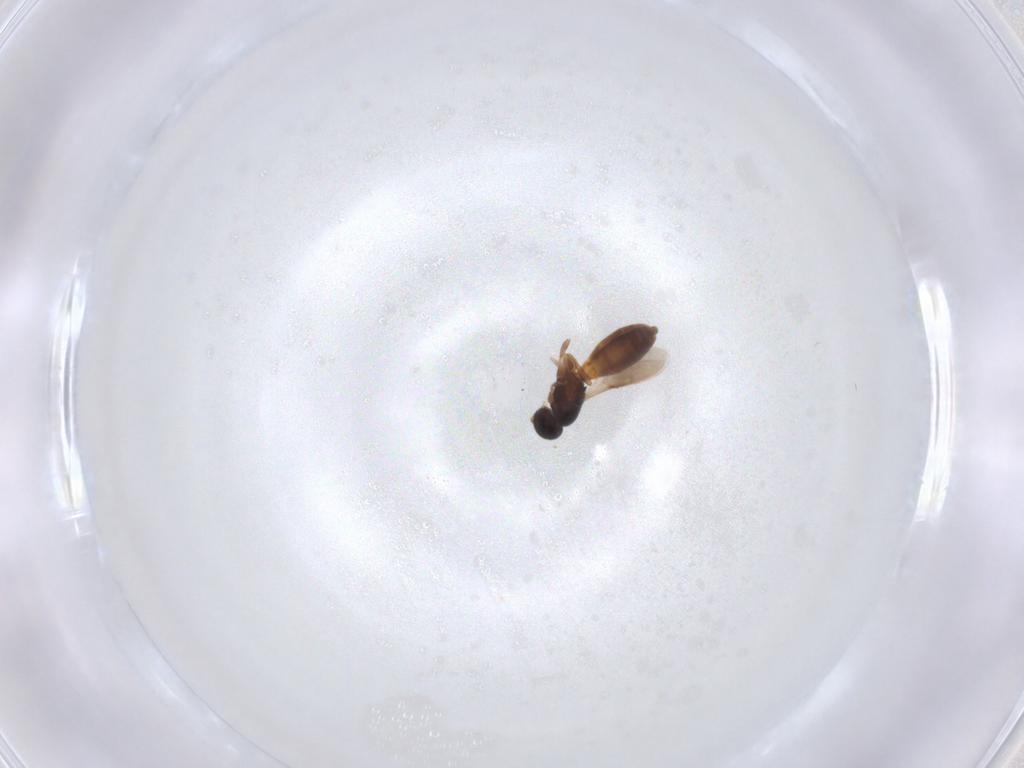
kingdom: Animalia
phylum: Arthropoda
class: Insecta
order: Hymenoptera
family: Scelionidae
